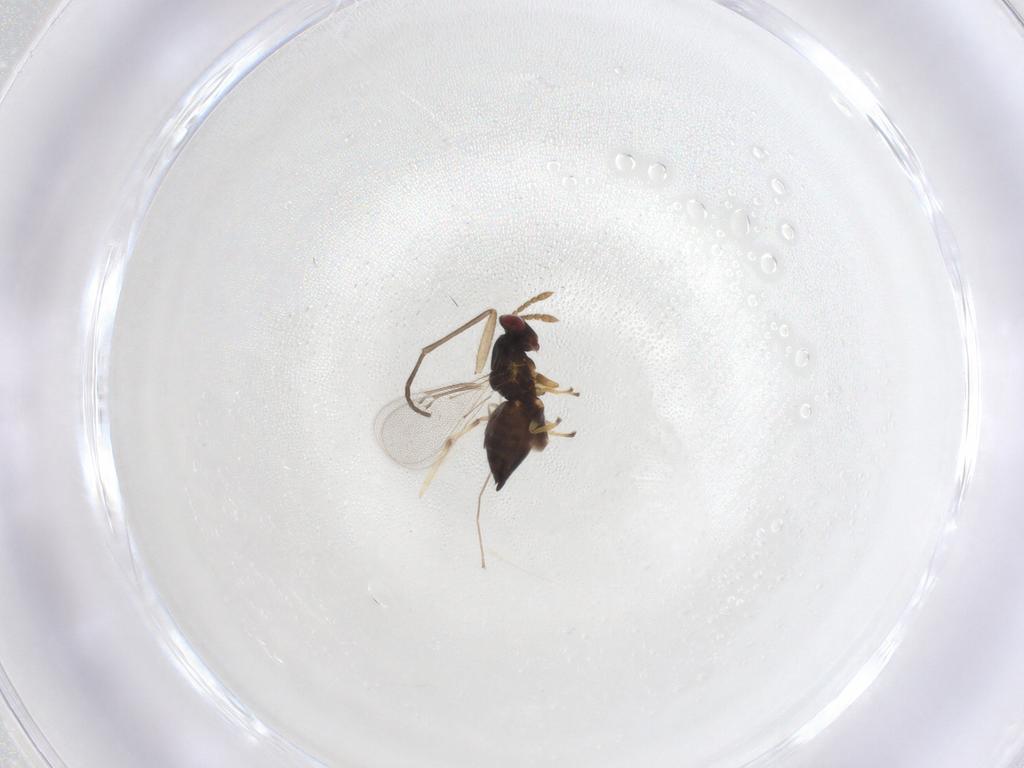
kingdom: Animalia
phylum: Arthropoda
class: Insecta
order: Hymenoptera
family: Eulophidae
